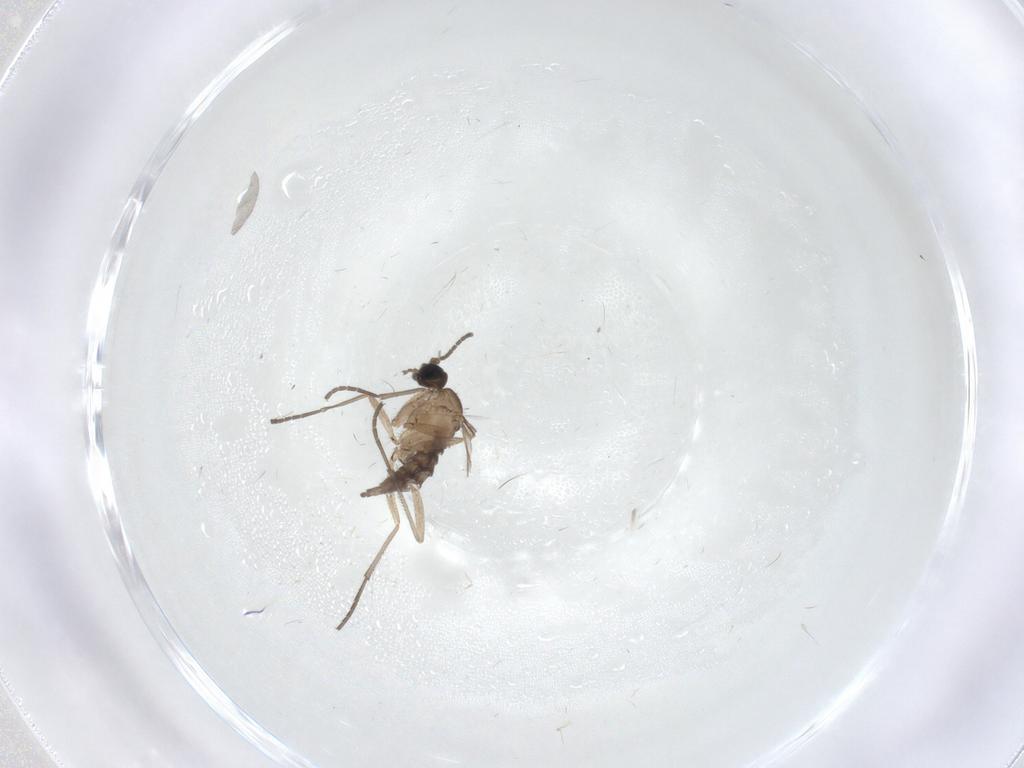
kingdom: Animalia
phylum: Arthropoda
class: Insecta
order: Diptera
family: Sciaridae
